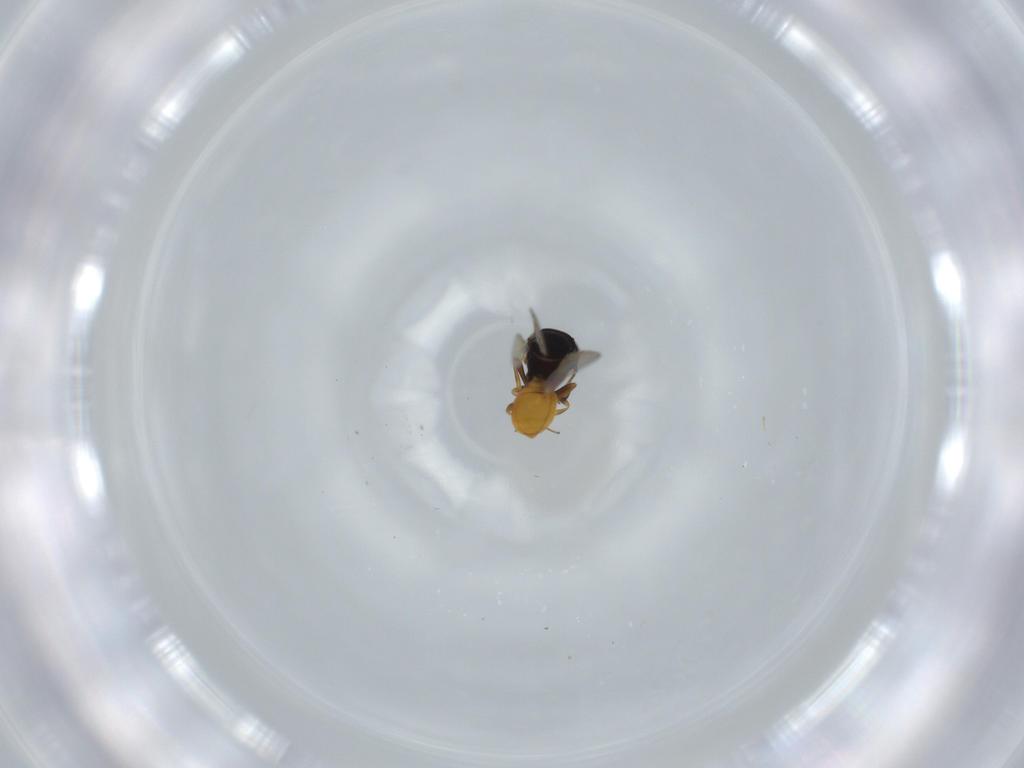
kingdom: Animalia
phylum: Arthropoda
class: Insecta
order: Hymenoptera
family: Scelionidae
